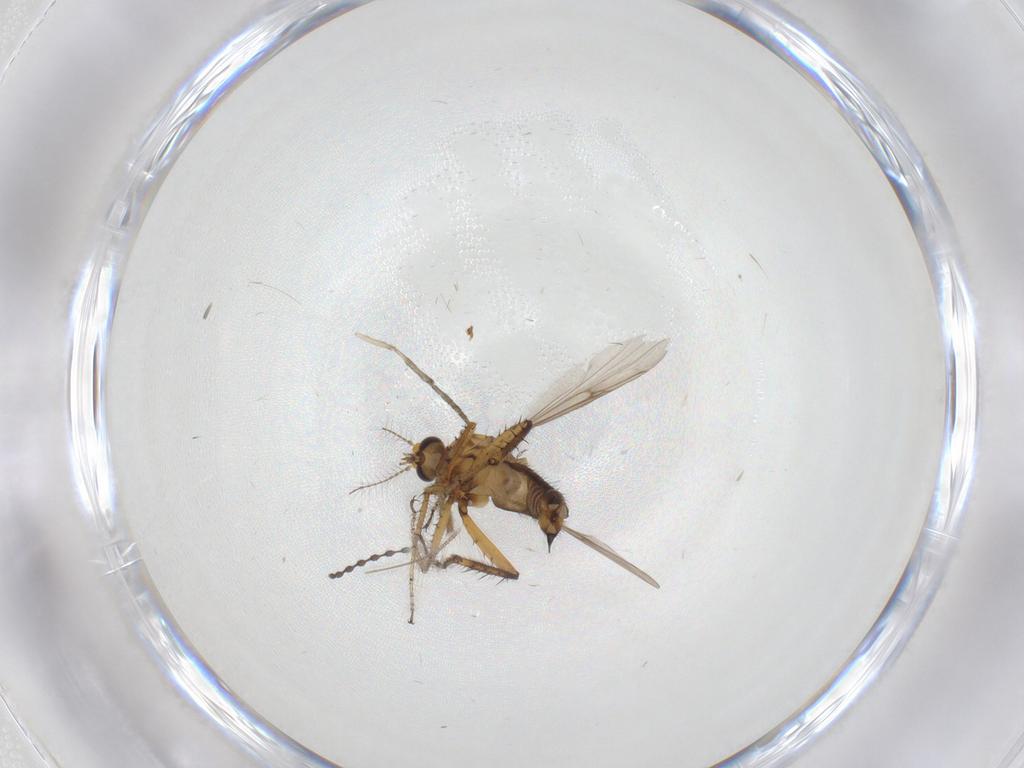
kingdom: Animalia
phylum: Arthropoda
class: Insecta
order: Diptera
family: Ceratopogonidae
